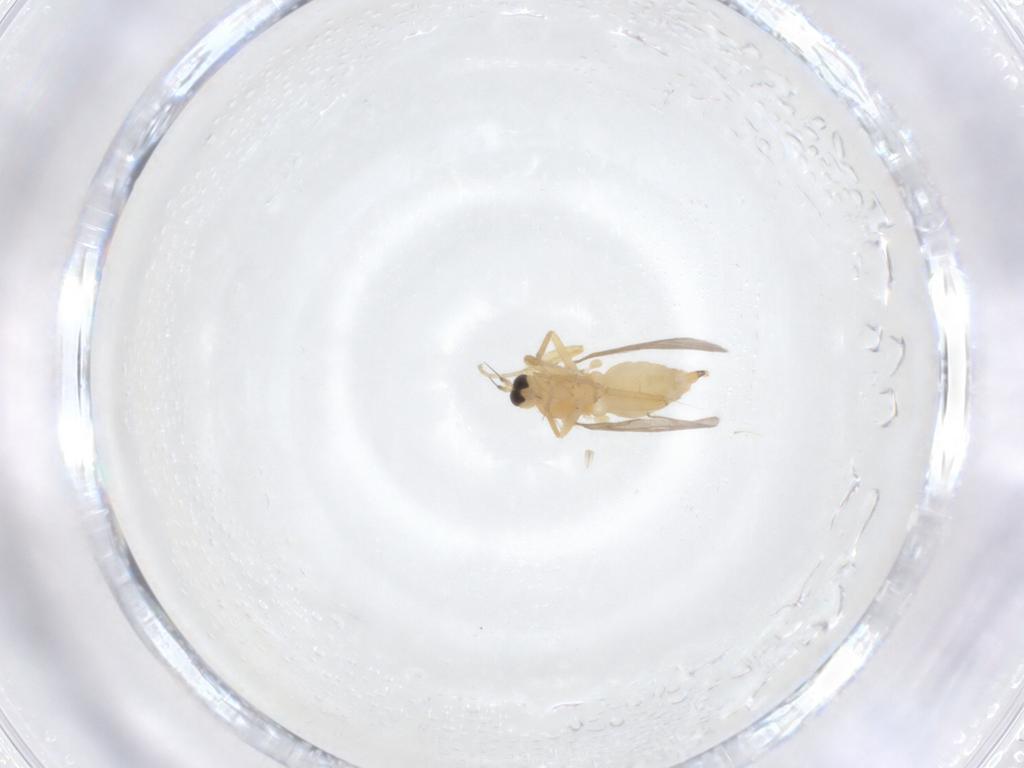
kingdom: Animalia
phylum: Arthropoda
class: Insecta
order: Diptera
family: Hybotidae
